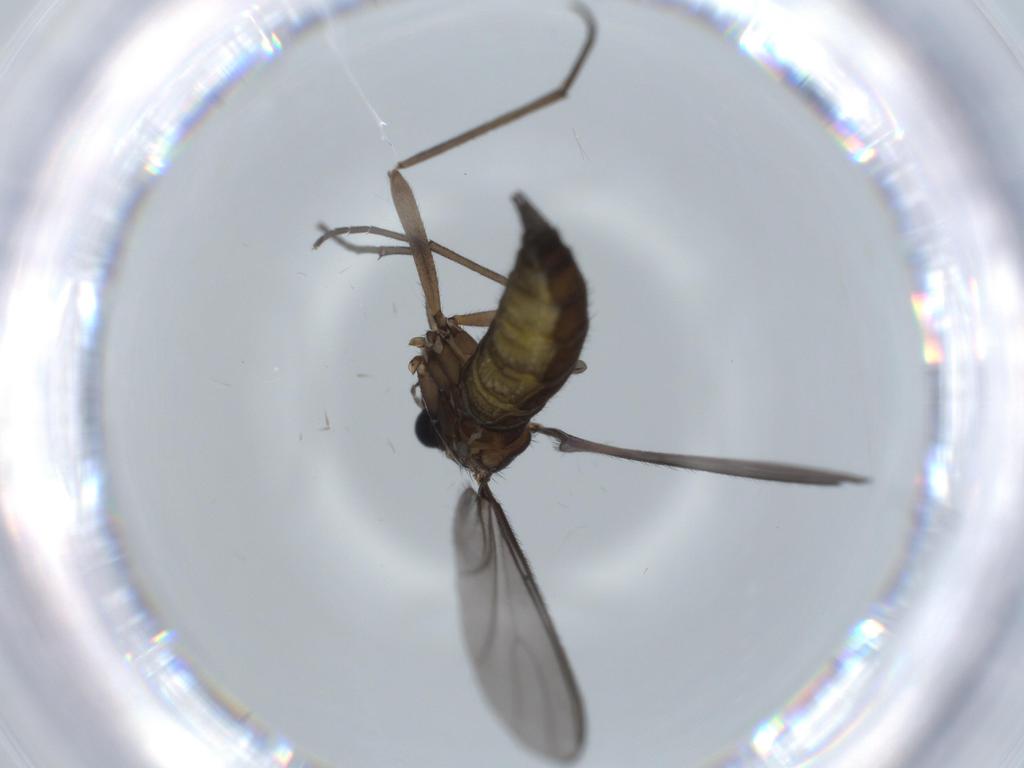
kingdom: Animalia
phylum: Arthropoda
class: Insecta
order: Diptera
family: Sciaridae
